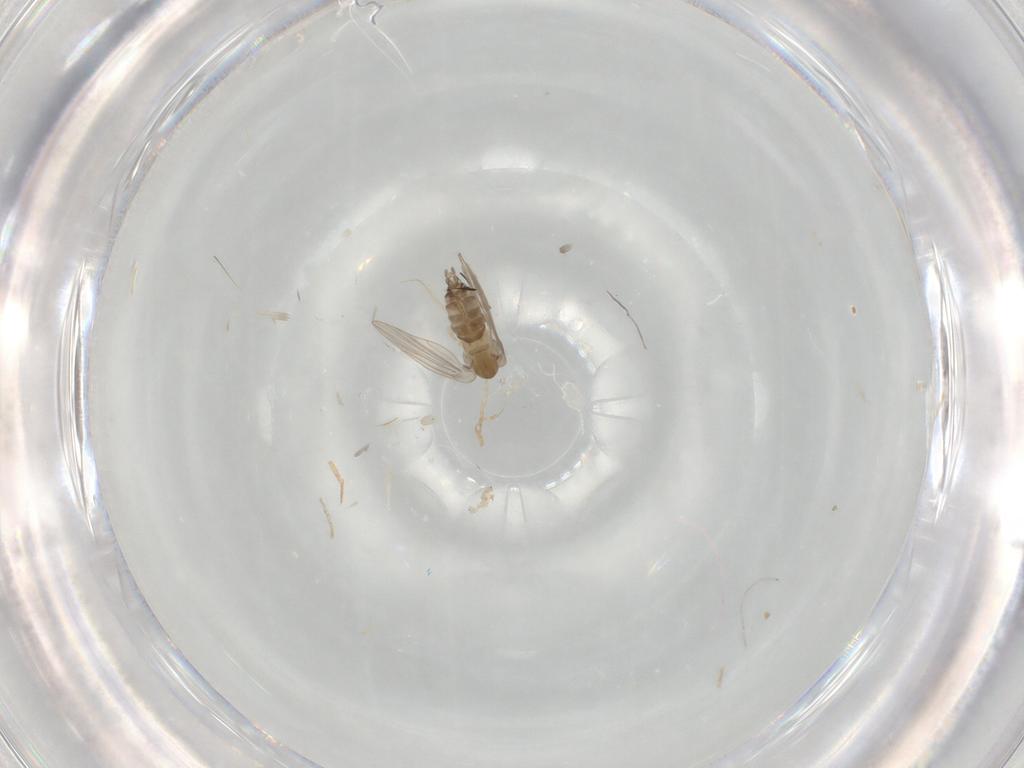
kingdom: Animalia
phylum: Arthropoda
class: Insecta
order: Diptera
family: Psychodidae
